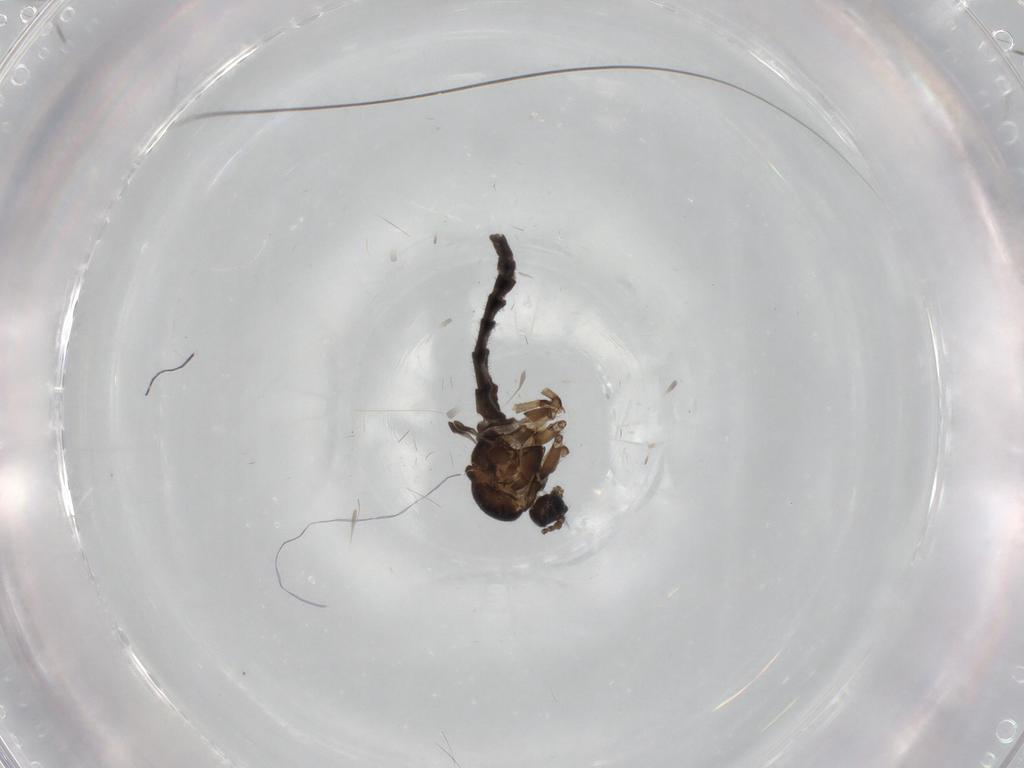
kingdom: Animalia
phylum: Arthropoda
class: Insecta
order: Diptera
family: Sciaridae
